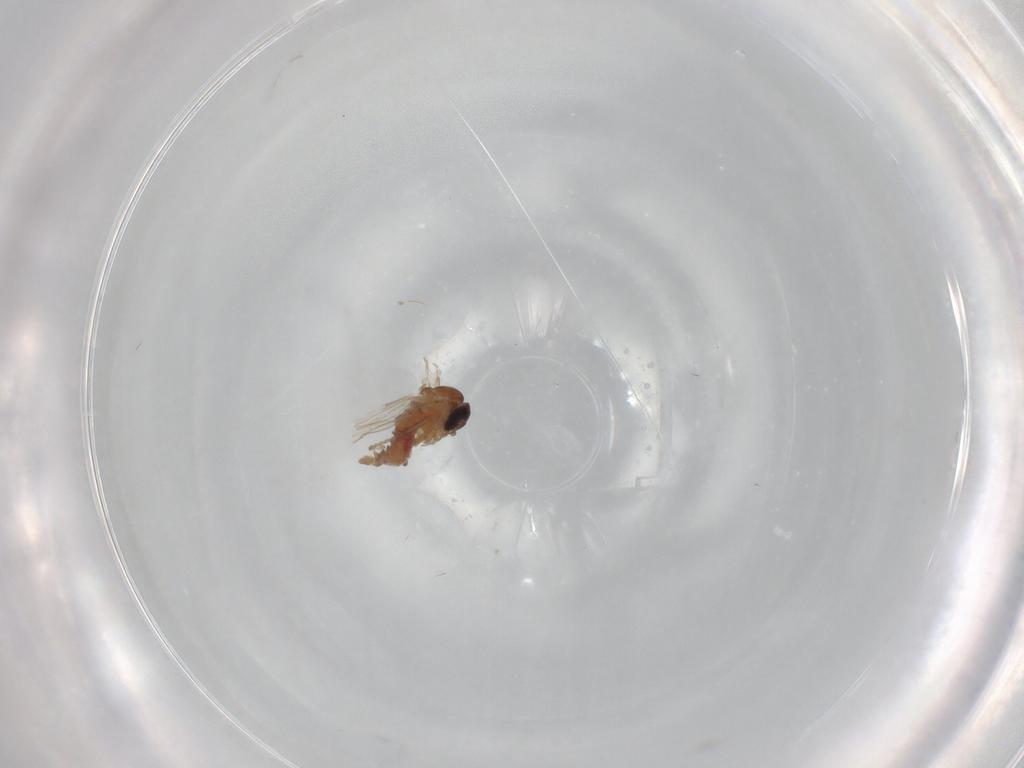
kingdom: Animalia
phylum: Arthropoda
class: Insecta
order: Diptera
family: Psychodidae
